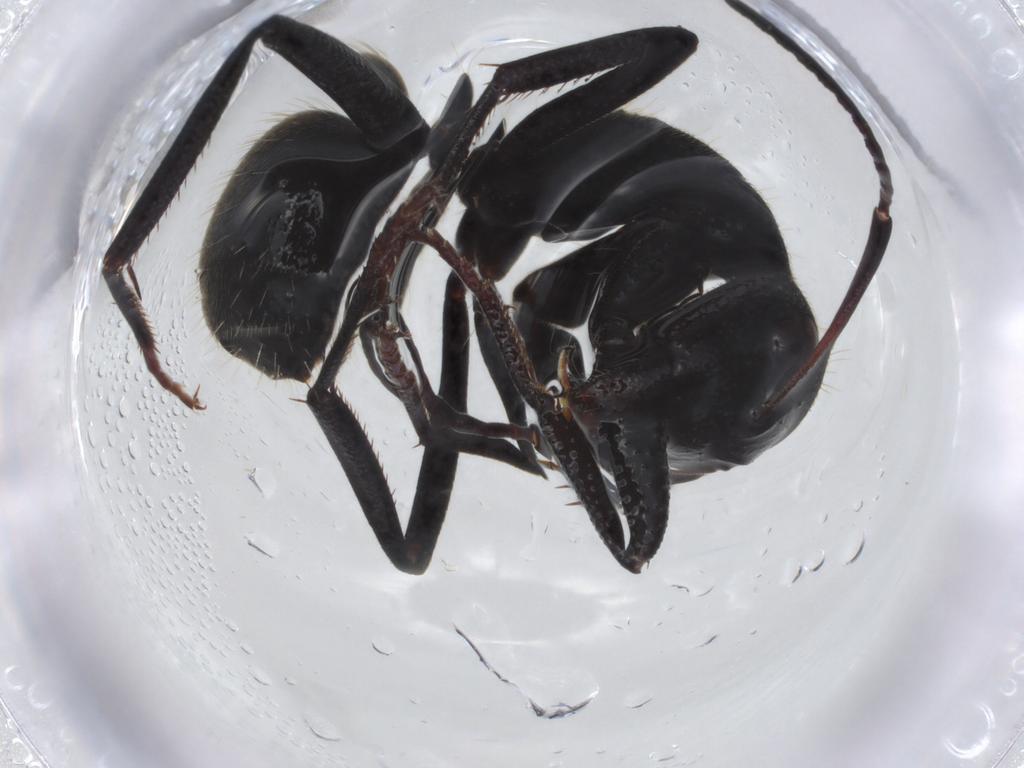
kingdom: Animalia
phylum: Arthropoda
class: Insecta
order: Hymenoptera
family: Formicidae
